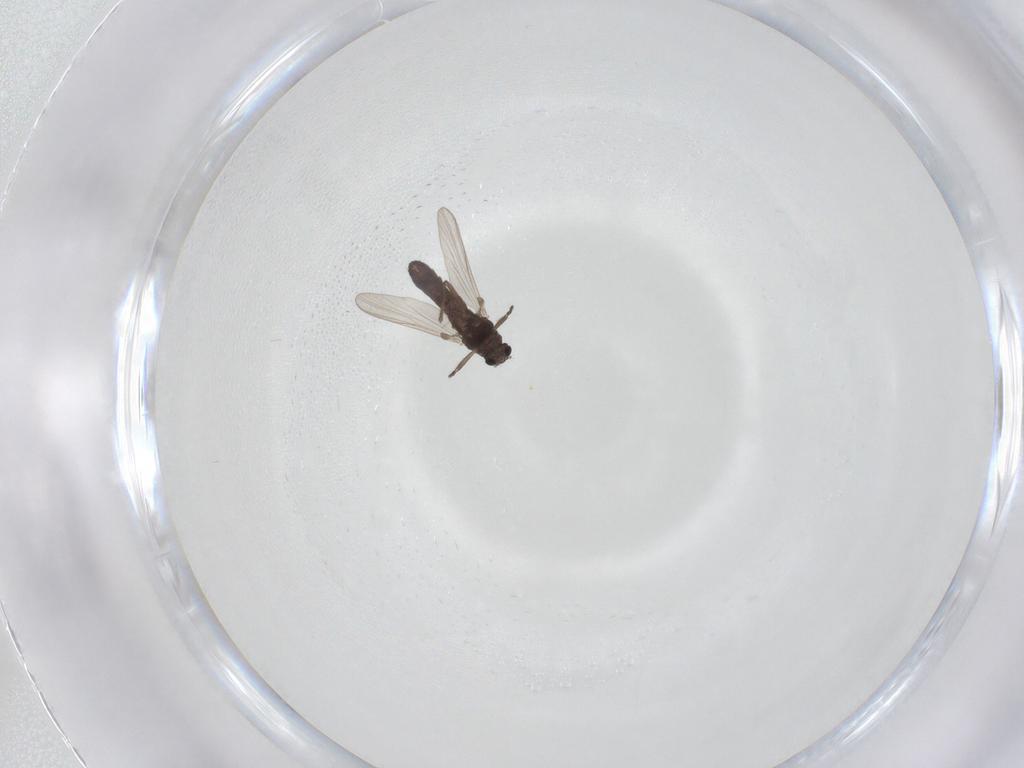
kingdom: Animalia
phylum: Arthropoda
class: Insecta
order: Diptera
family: Chironomidae
